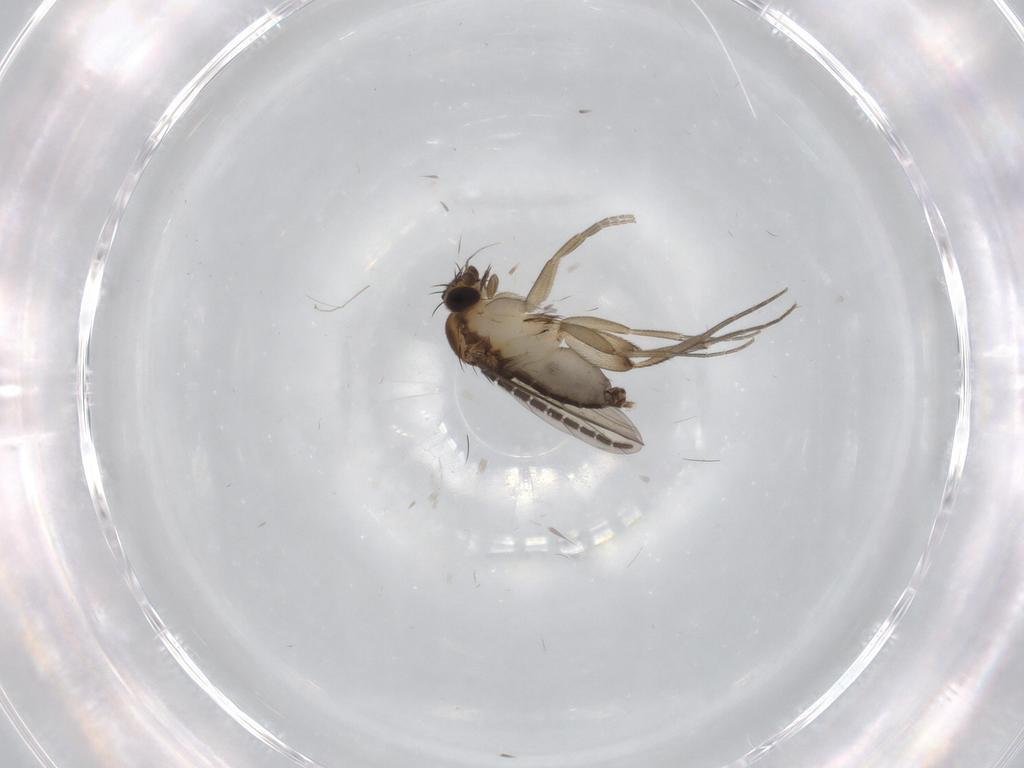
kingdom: Animalia
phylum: Arthropoda
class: Insecta
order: Diptera
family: Phoridae
